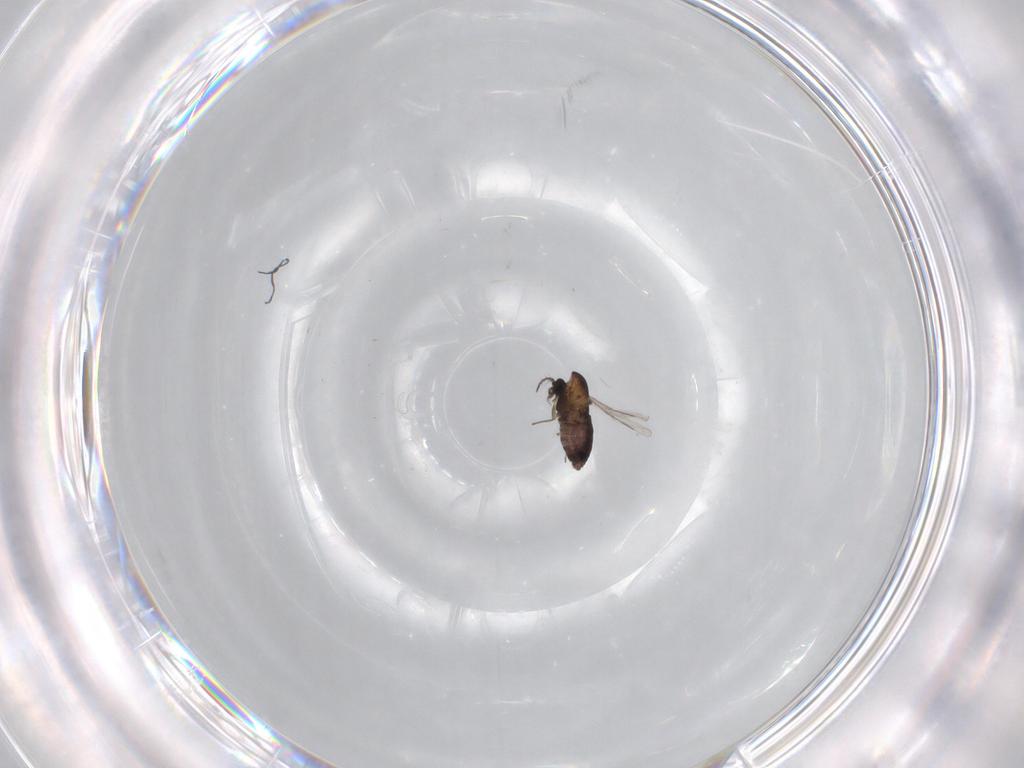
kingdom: Animalia
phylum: Arthropoda
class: Insecta
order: Diptera
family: Chironomidae
